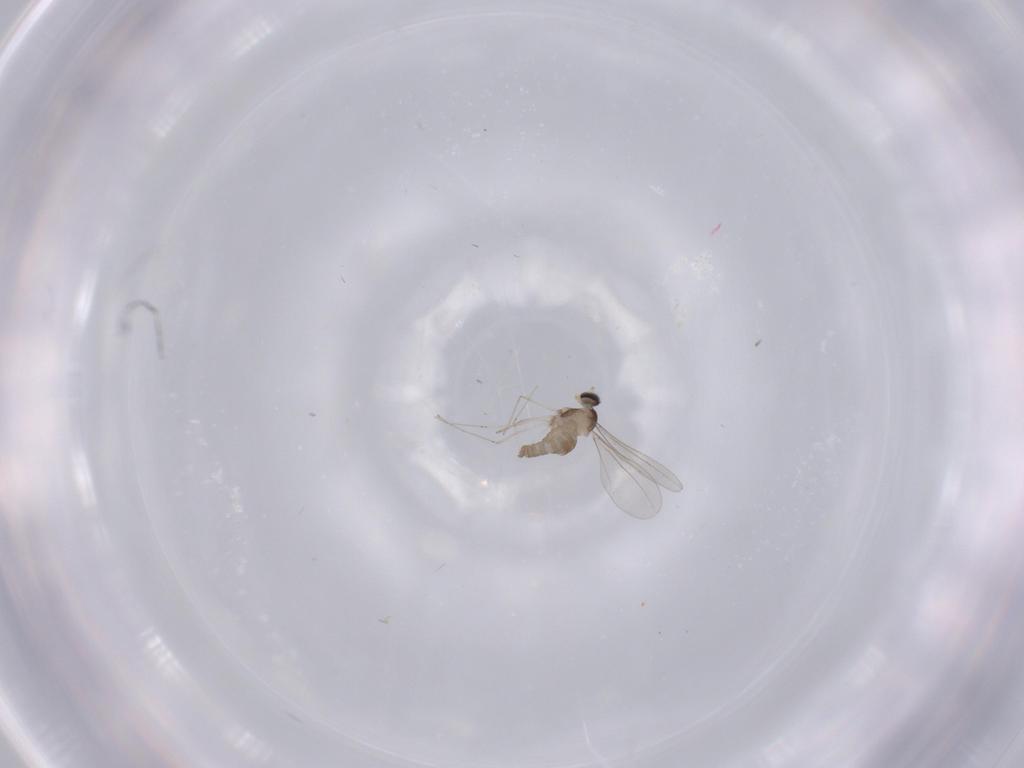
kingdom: Animalia
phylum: Arthropoda
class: Insecta
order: Diptera
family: Cecidomyiidae
